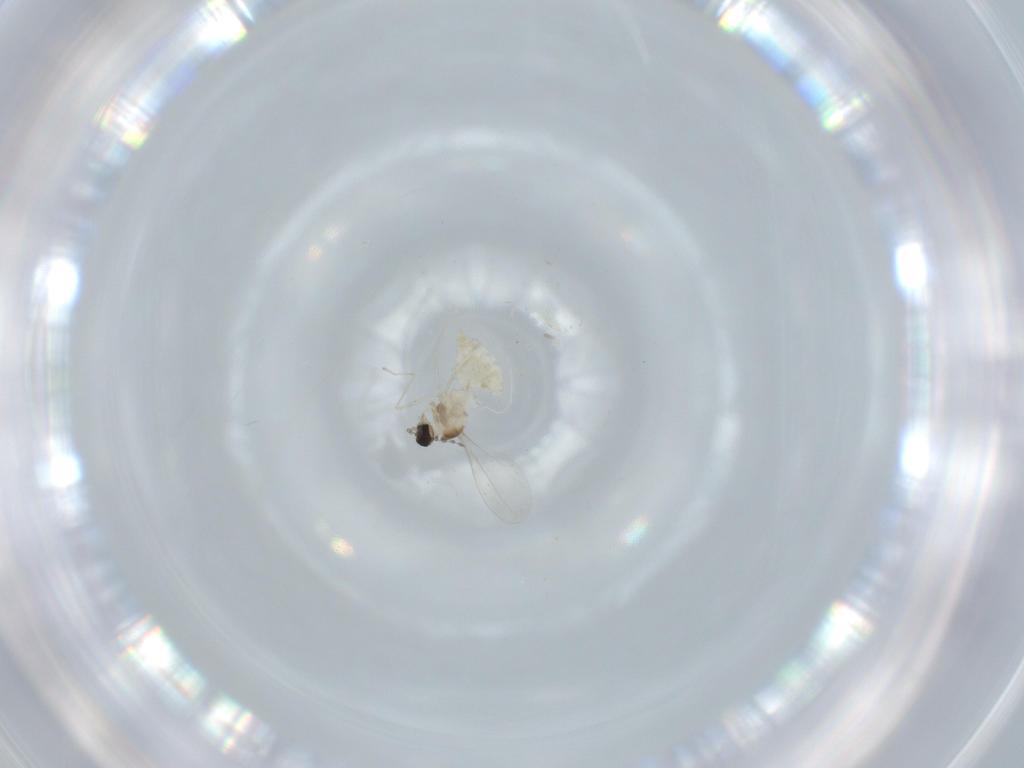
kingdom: Animalia
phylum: Arthropoda
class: Insecta
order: Diptera
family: Cecidomyiidae
